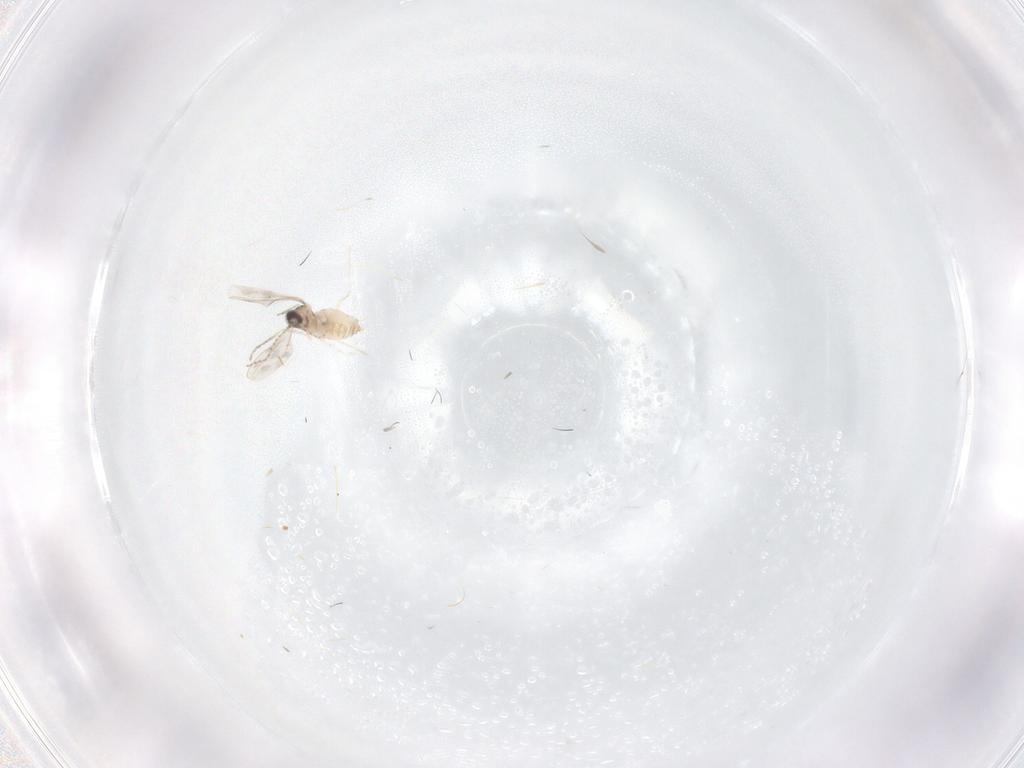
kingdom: Animalia
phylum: Arthropoda
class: Insecta
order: Diptera
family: Cecidomyiidae
